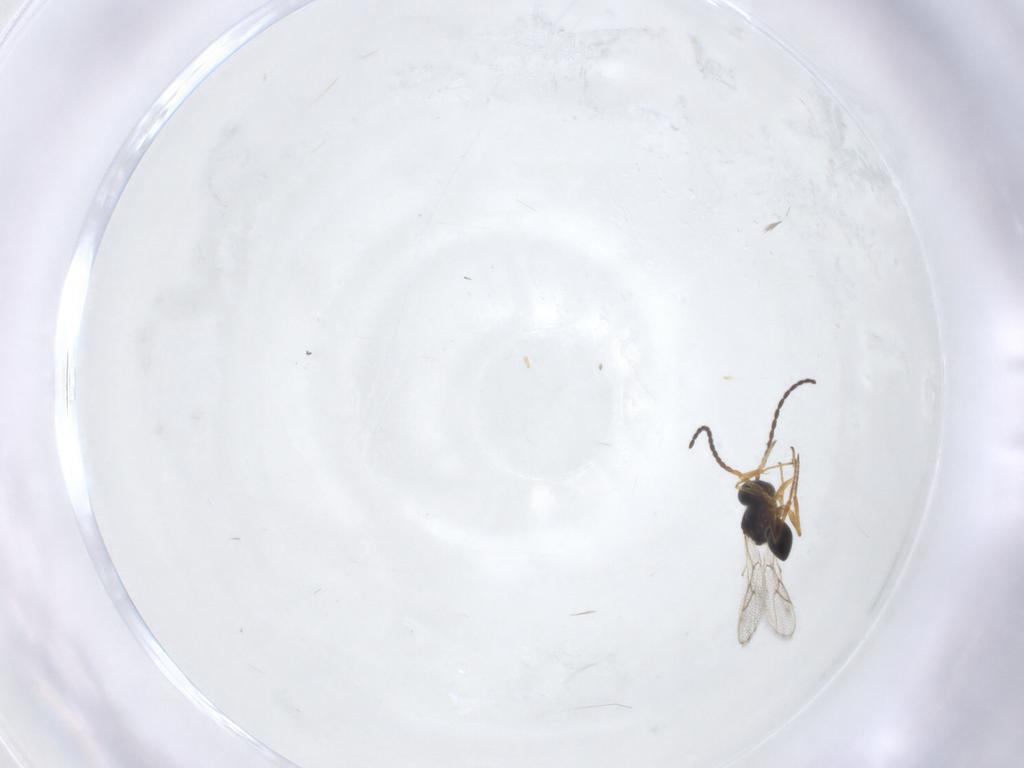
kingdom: Animalia
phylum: Arthropoda
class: Insecta
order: Hymenoptera
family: Figitidae
